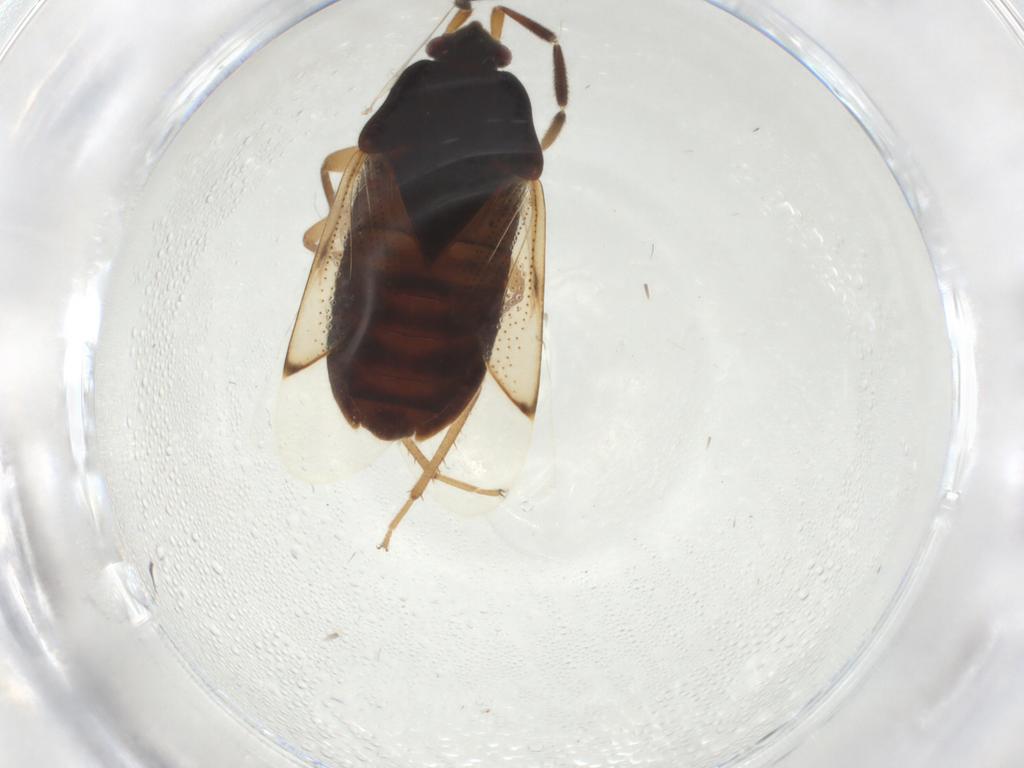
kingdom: Animalia
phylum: Arthropoda
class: Insecta
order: Hemiptera
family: Rhyparochromidae
